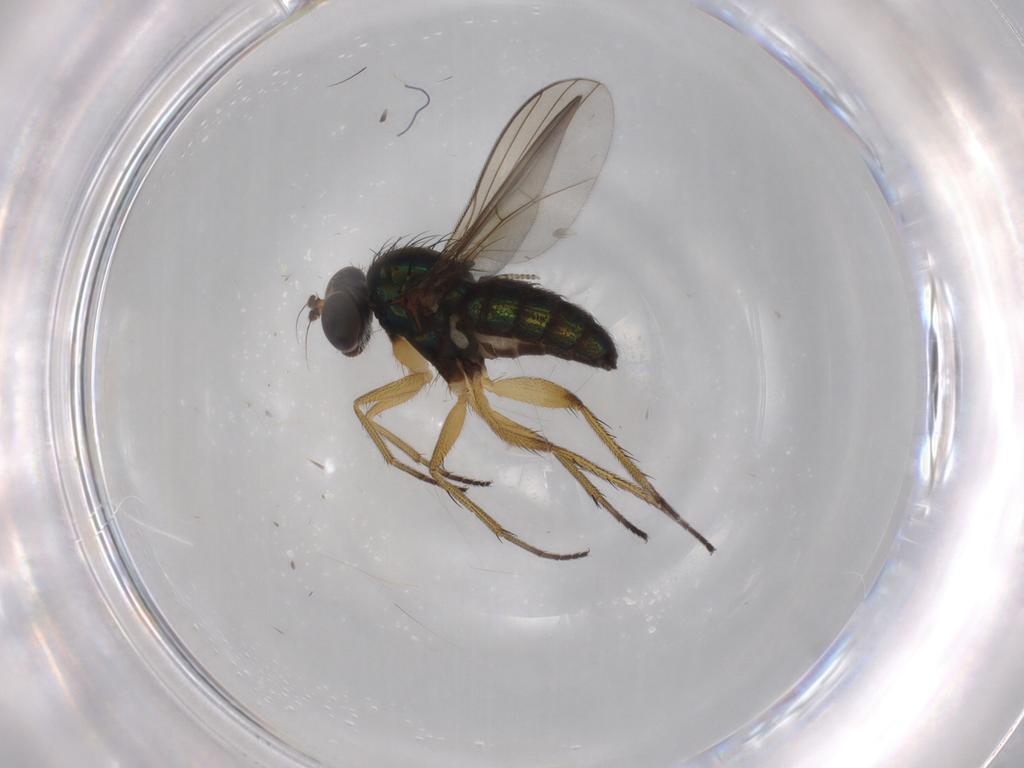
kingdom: Animalia
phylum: Arthropoda
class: Insecta
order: Diptera
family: Dolichopodidae
